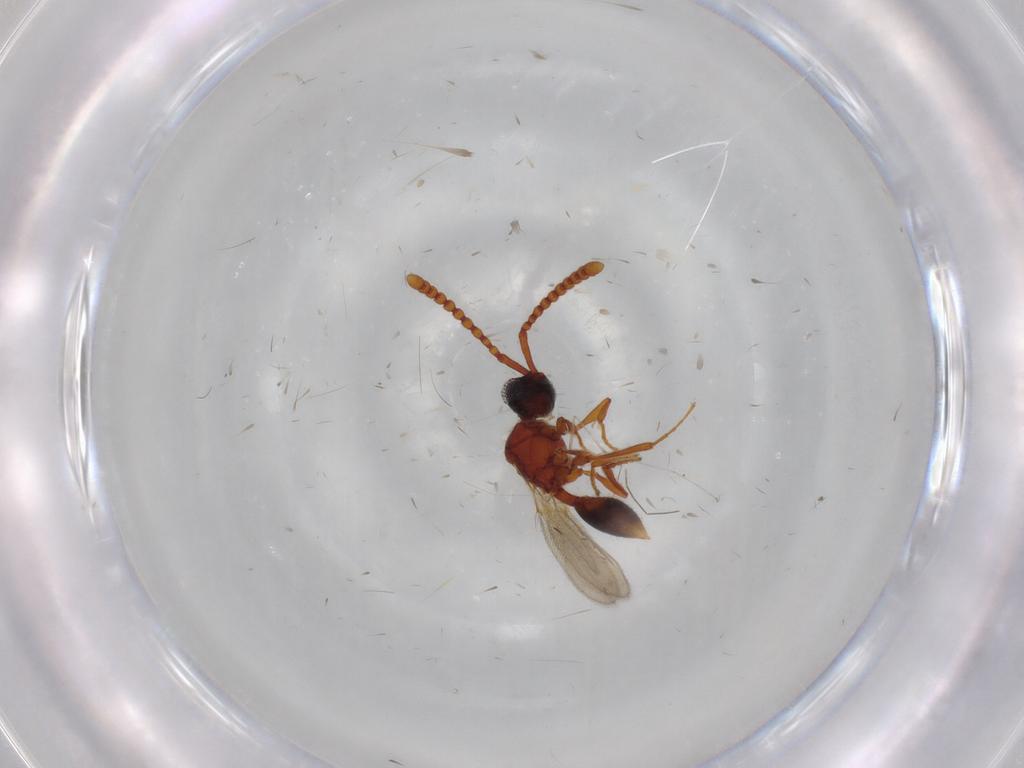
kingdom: Animalia
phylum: Arthropoda
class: Insecta
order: Hymenoptera
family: Diapriidae
